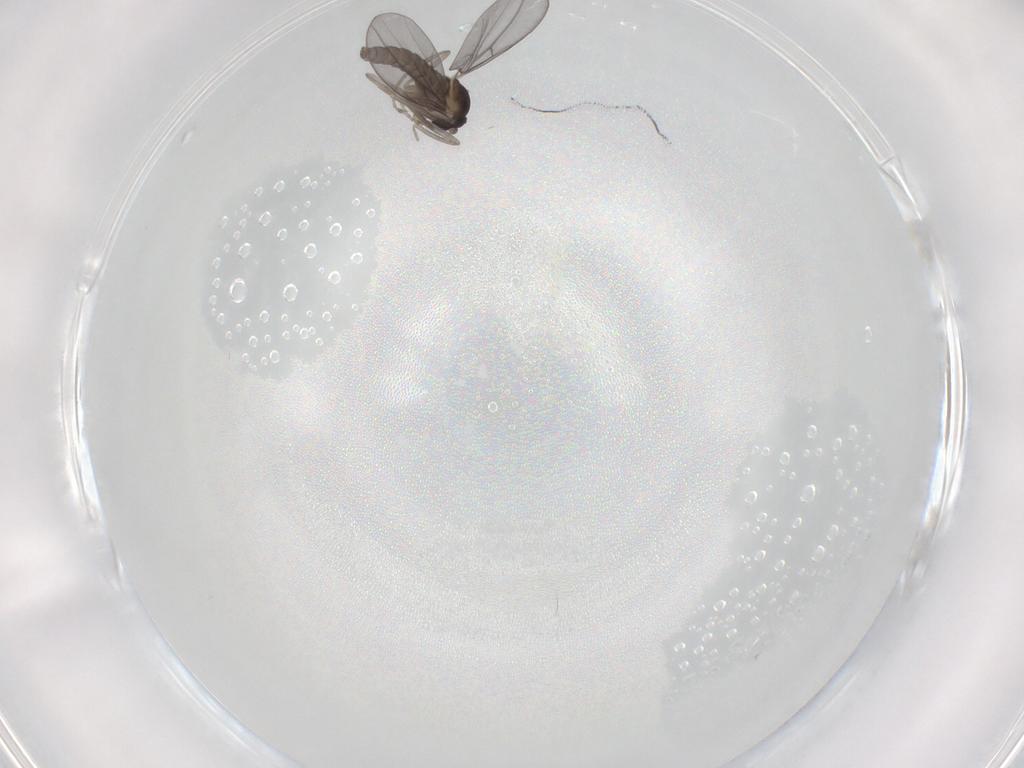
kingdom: Animalia
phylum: Arthropoda
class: Insecta
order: Diptera
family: Cecidomyiidae
